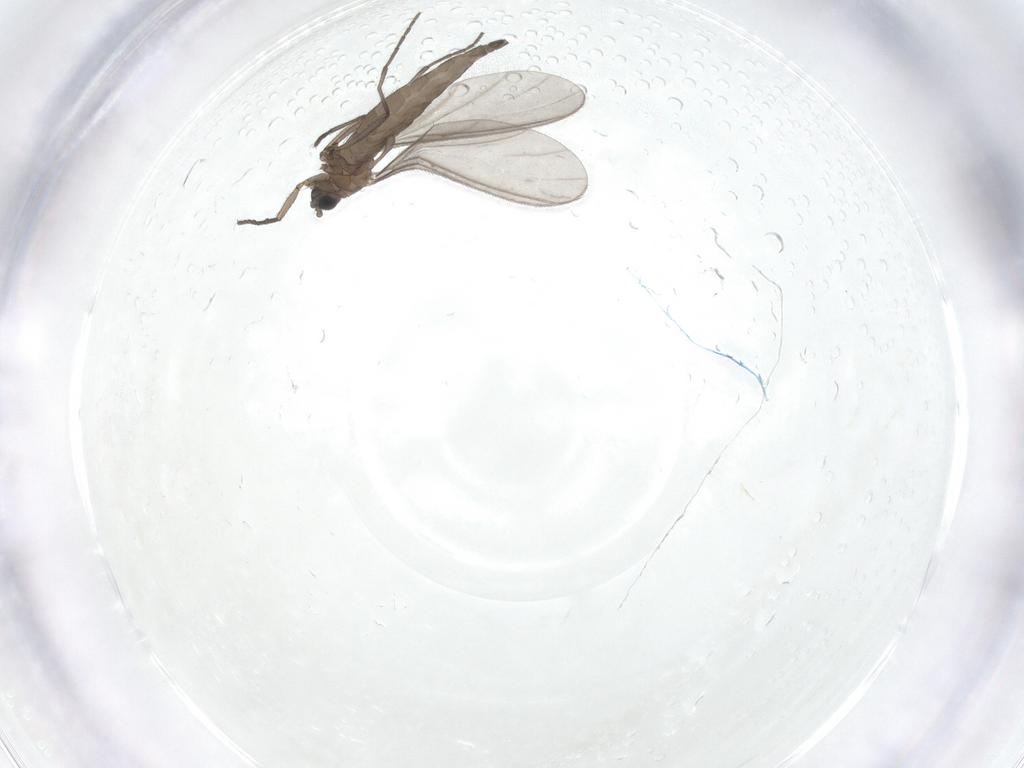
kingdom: Animalia
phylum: Arthropoda
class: Insecta
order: Diptera
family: Sciaridae
